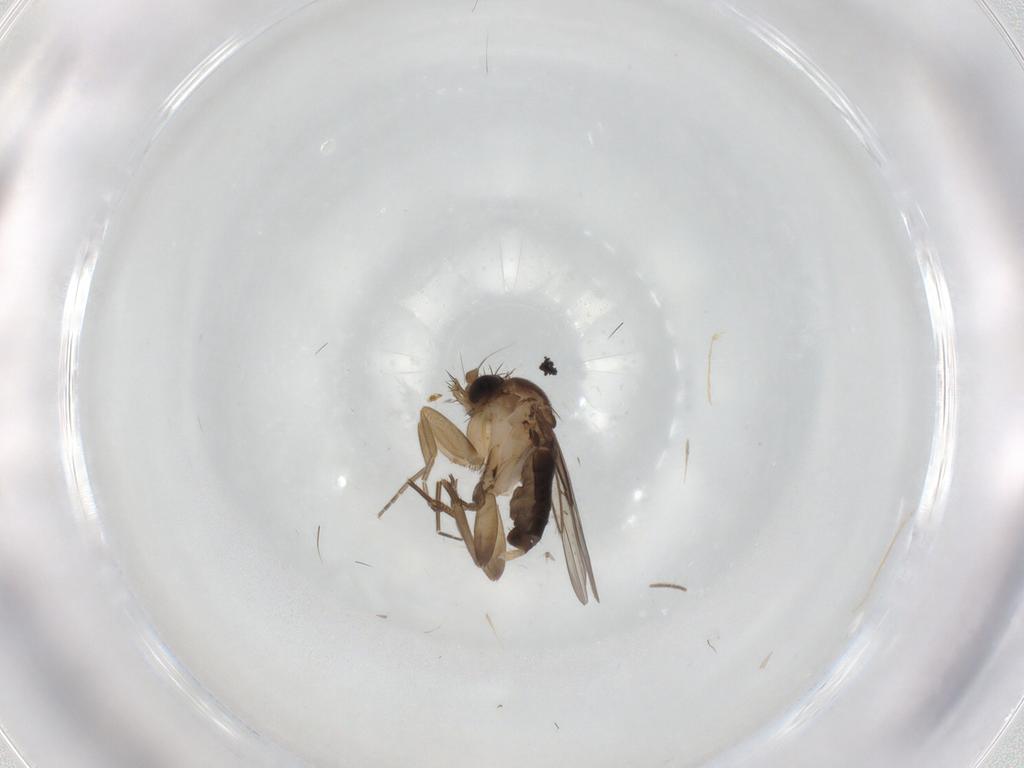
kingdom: Animalia
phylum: Arthropoda
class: Insecta
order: Diptera
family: Phoridae
